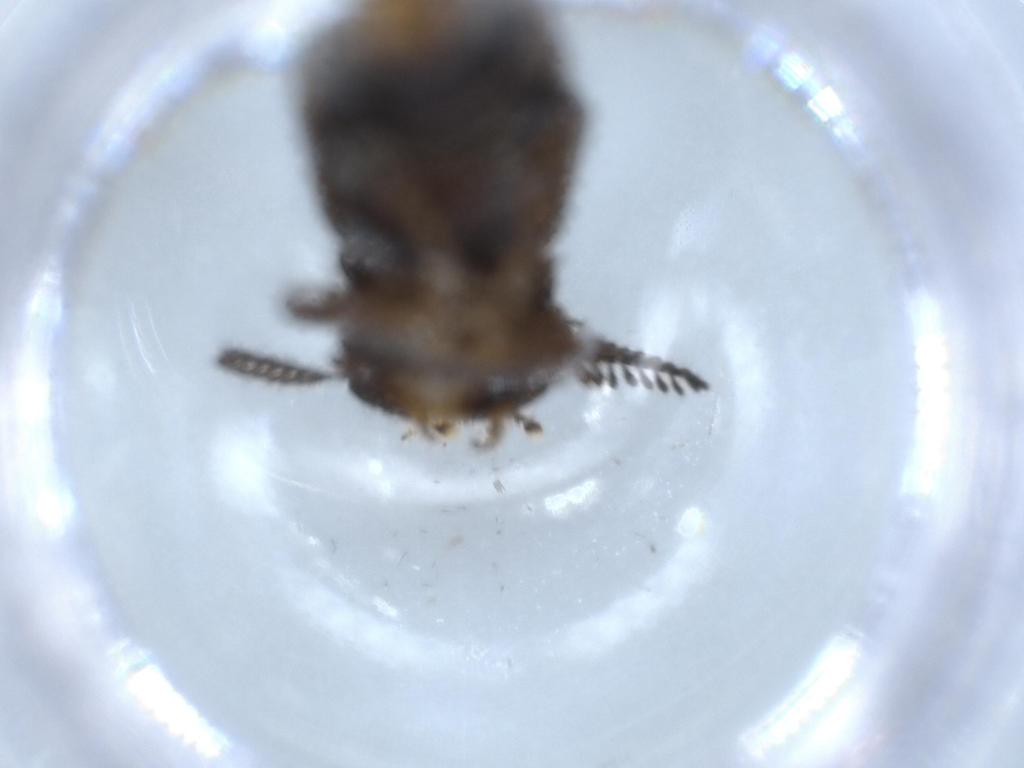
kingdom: Animalia
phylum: Arthropoda
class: Insecta
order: Coleoptera
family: Phengodidae
